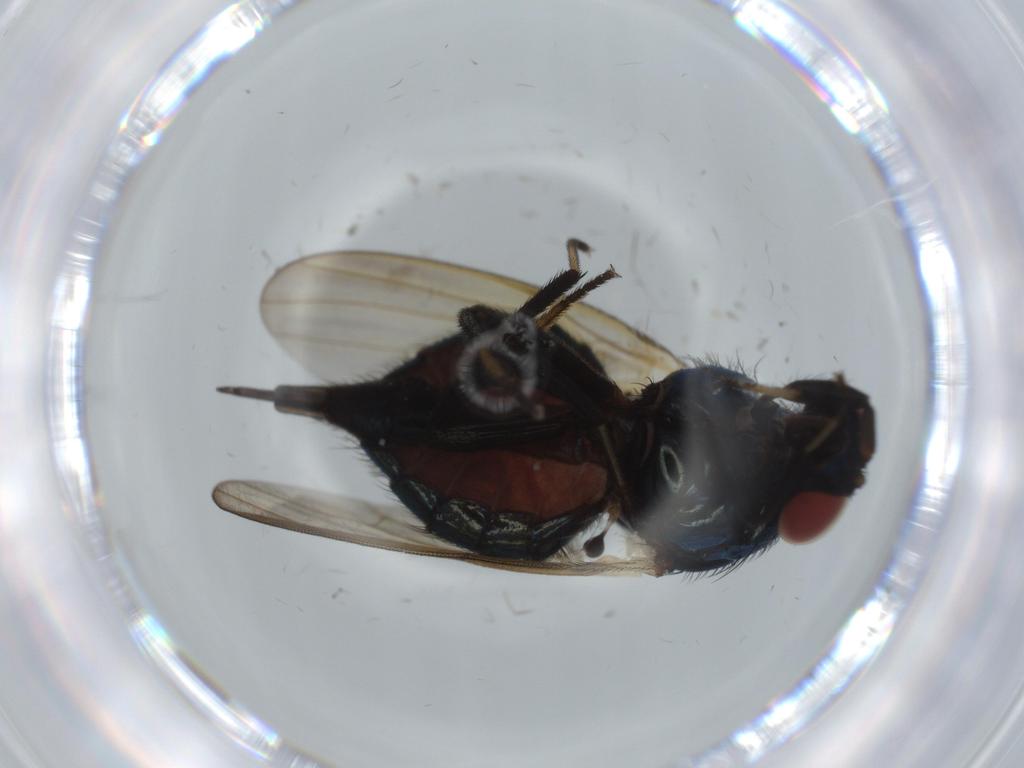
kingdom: Animalia
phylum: Arthropoda
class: Insecta
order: Diptera
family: Lonchaeidae
